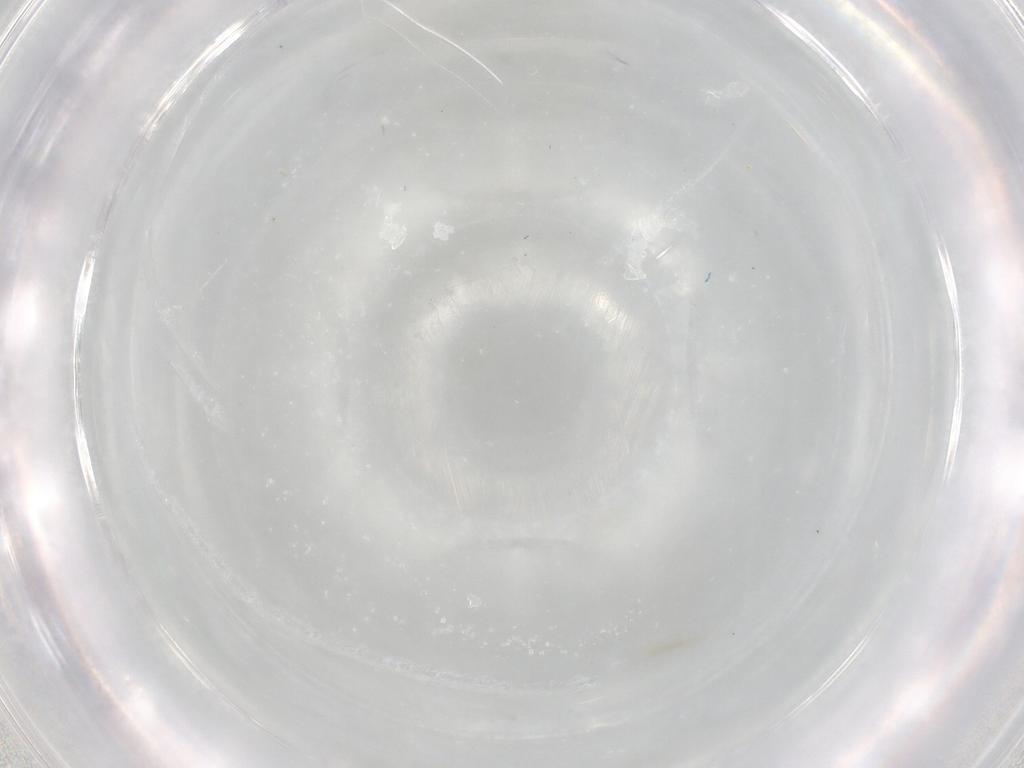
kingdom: Animalia
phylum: Arthropoda
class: Insecta
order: Hemiptera
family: Aleyrodidae
